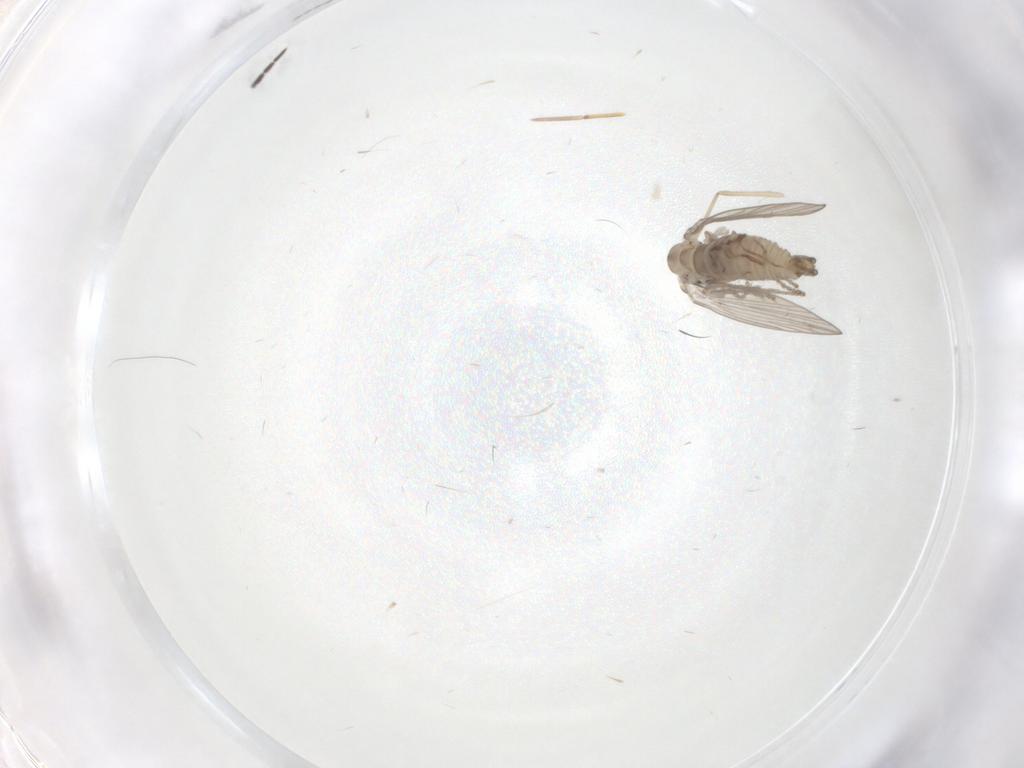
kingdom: Animalia
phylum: Arthropoda
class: Insecta
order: Diptera
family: Psychodidae
